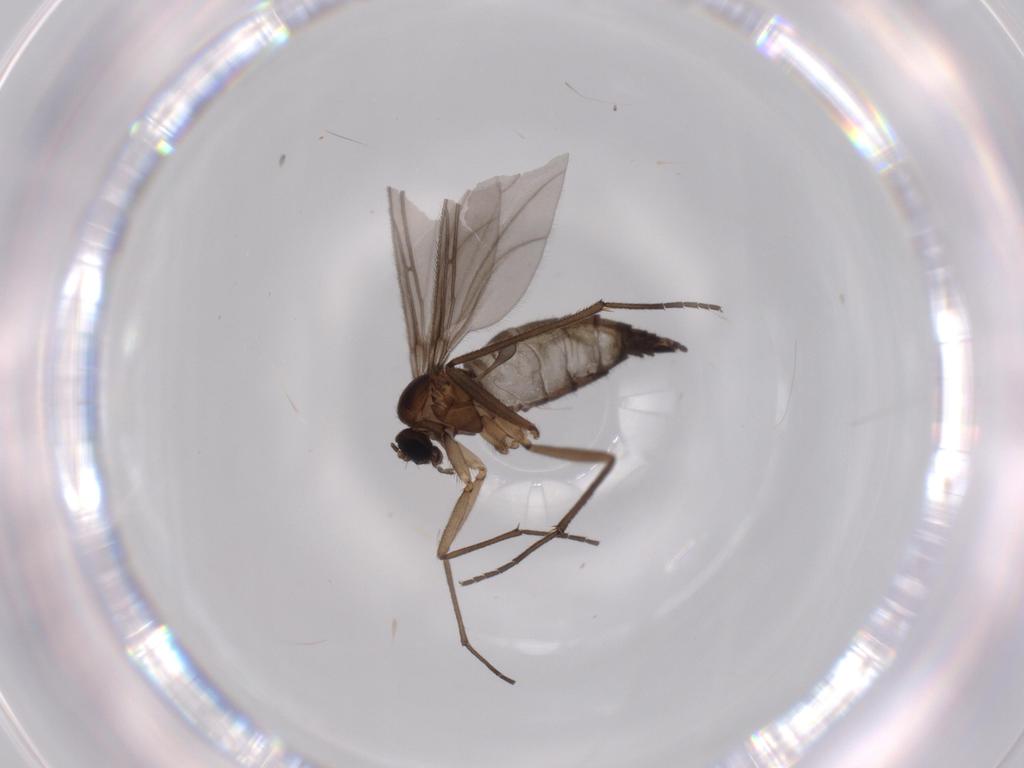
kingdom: Animalia
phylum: Arthropoda
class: Insecta
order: Diptera
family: Sciaridae
